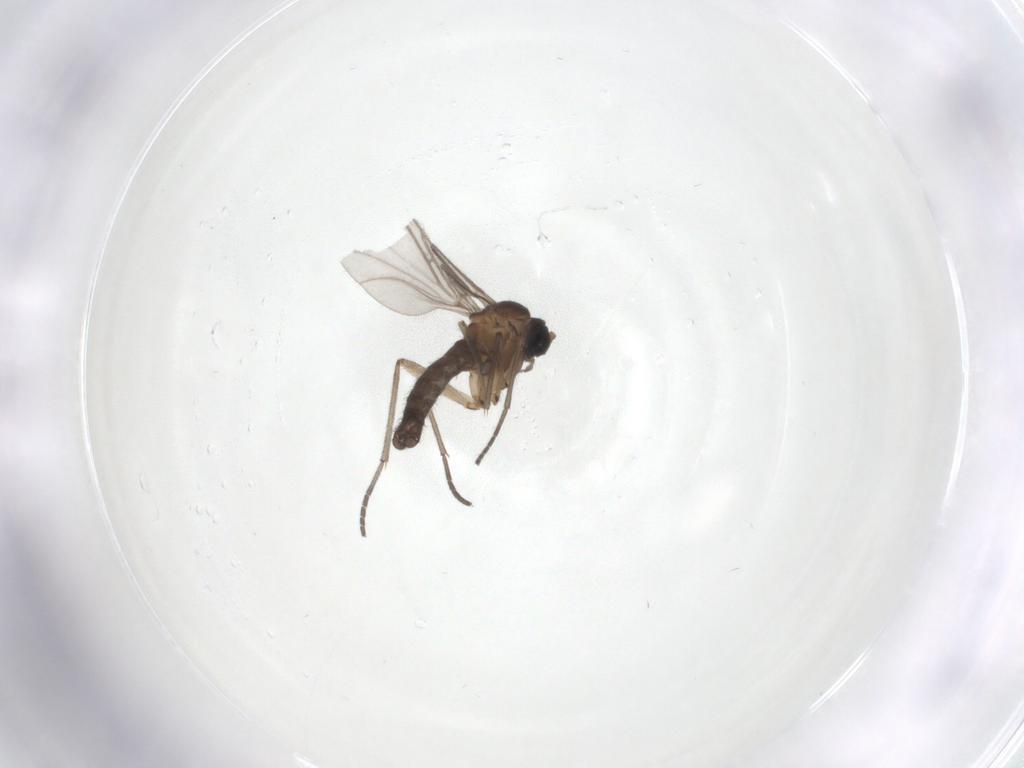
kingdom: Animalia
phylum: Arthropoda
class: Insecta
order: Diptera
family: Sciaridae
